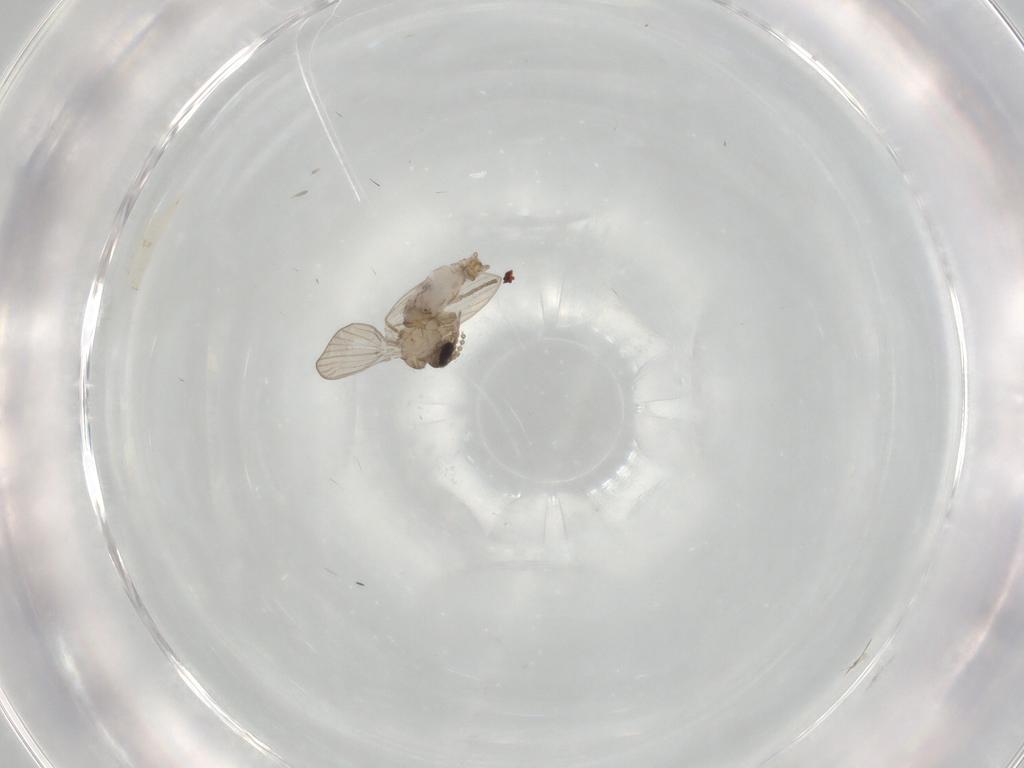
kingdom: Animalia
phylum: Arthropoda
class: Insecta
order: Diptera
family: Psychodidae
